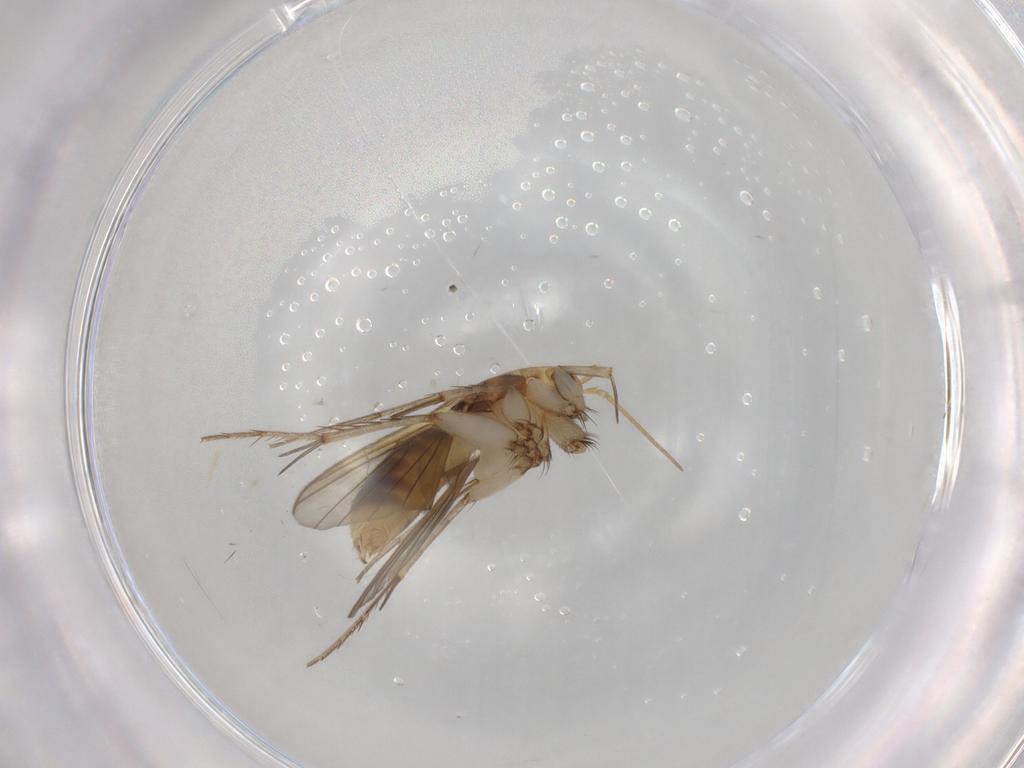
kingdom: Animalia
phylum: Arthropoda
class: Insecta
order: Diptera
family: Mycetophilidae
